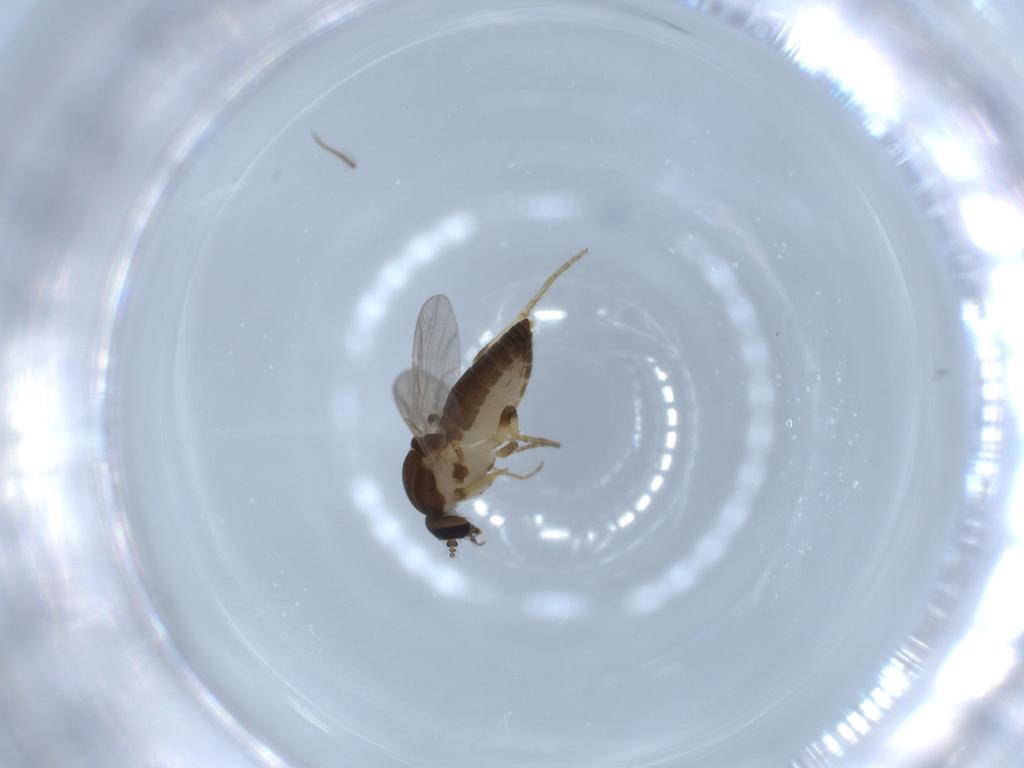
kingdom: Animalia
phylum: Arthropoda
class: Insecta
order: Diptera
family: Ceratopogonidae
